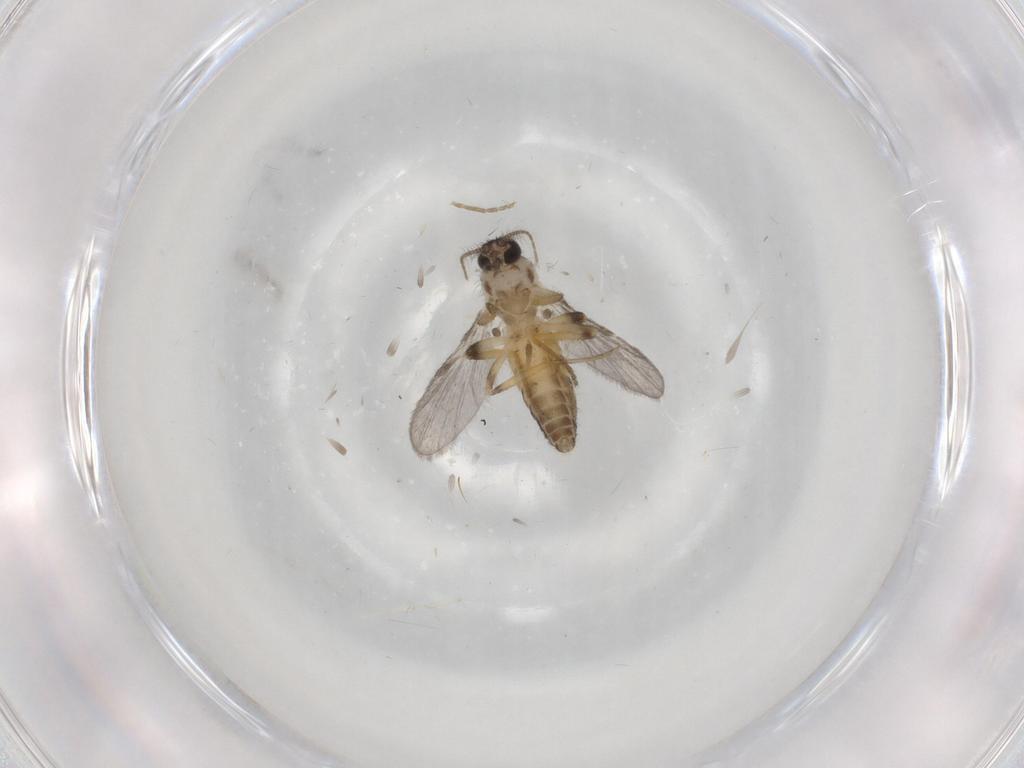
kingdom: Animalia
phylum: Arthropoda
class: Insecta
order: Diptera
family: Ceratopogonidae
